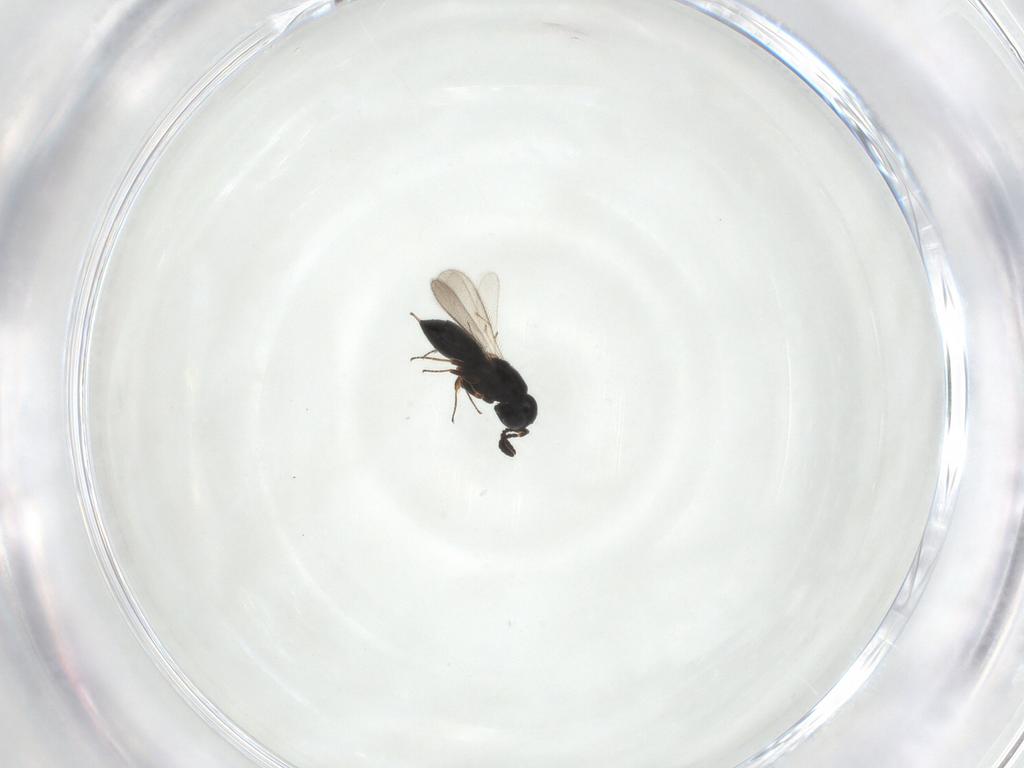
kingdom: Animalia
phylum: Arthropoda
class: Insecta
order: Hymenoptera
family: Scelionidae
